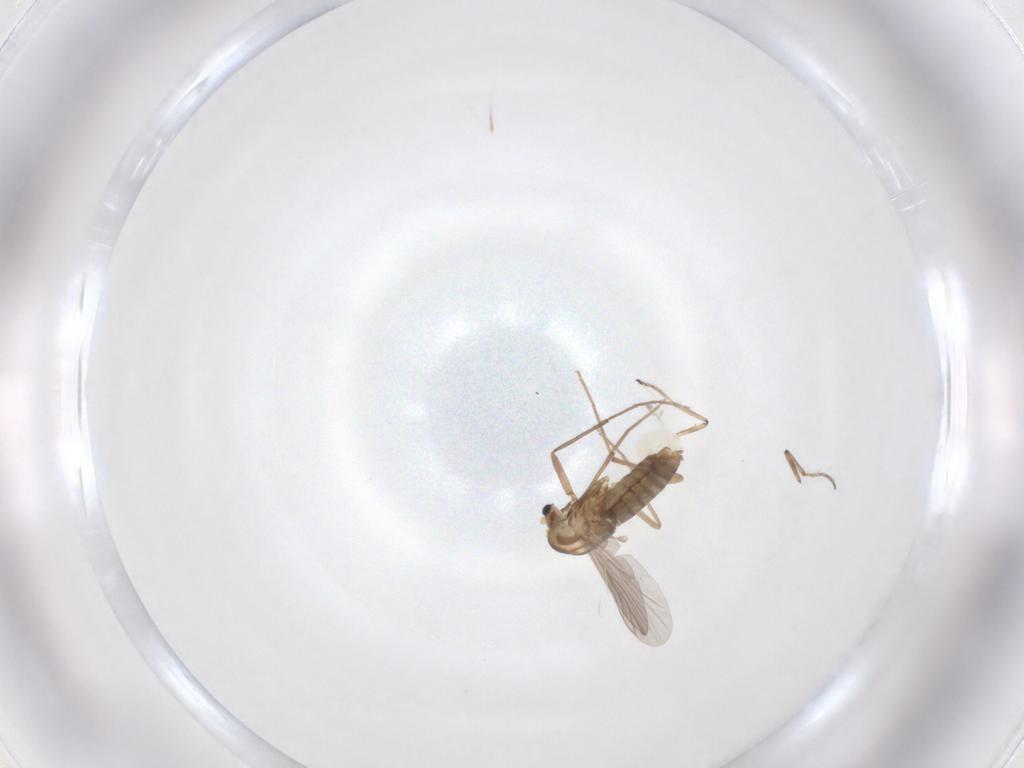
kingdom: Animalia
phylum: Arthropoda
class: Insecta
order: Diptera
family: Chironomidae
